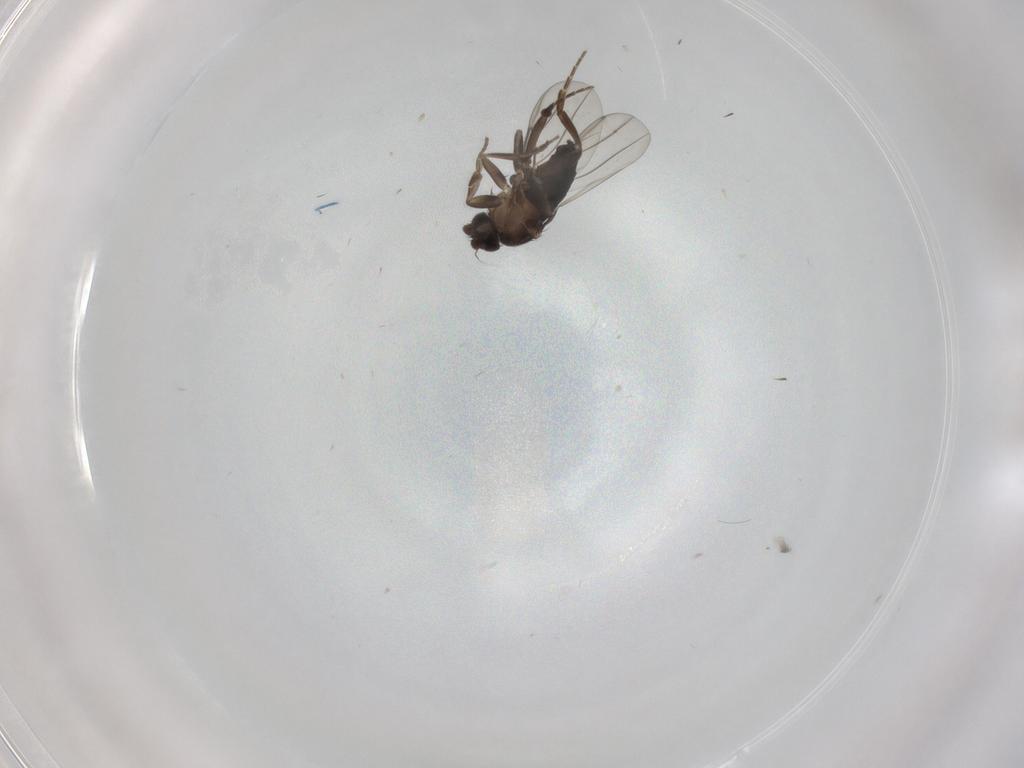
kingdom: Animalia
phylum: Arthropoda
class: Insecta
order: Diptera
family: Phoridae
